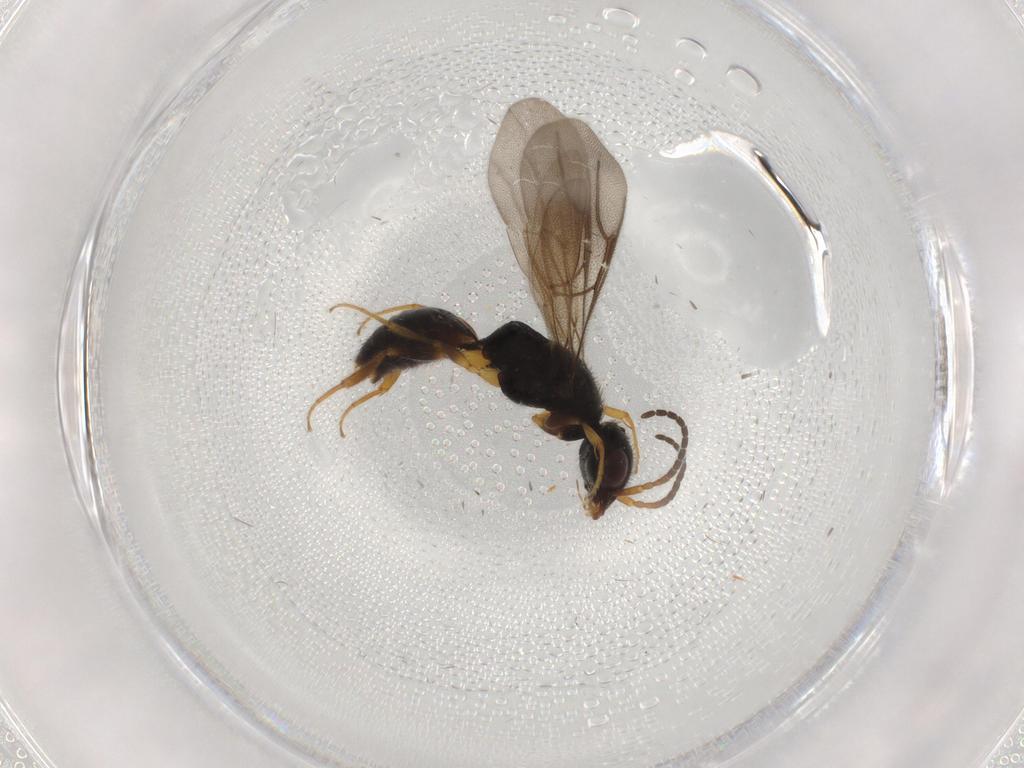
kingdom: Animalia
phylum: Arthropoda
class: Insecta
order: Hymenoptera
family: Bethylidae
